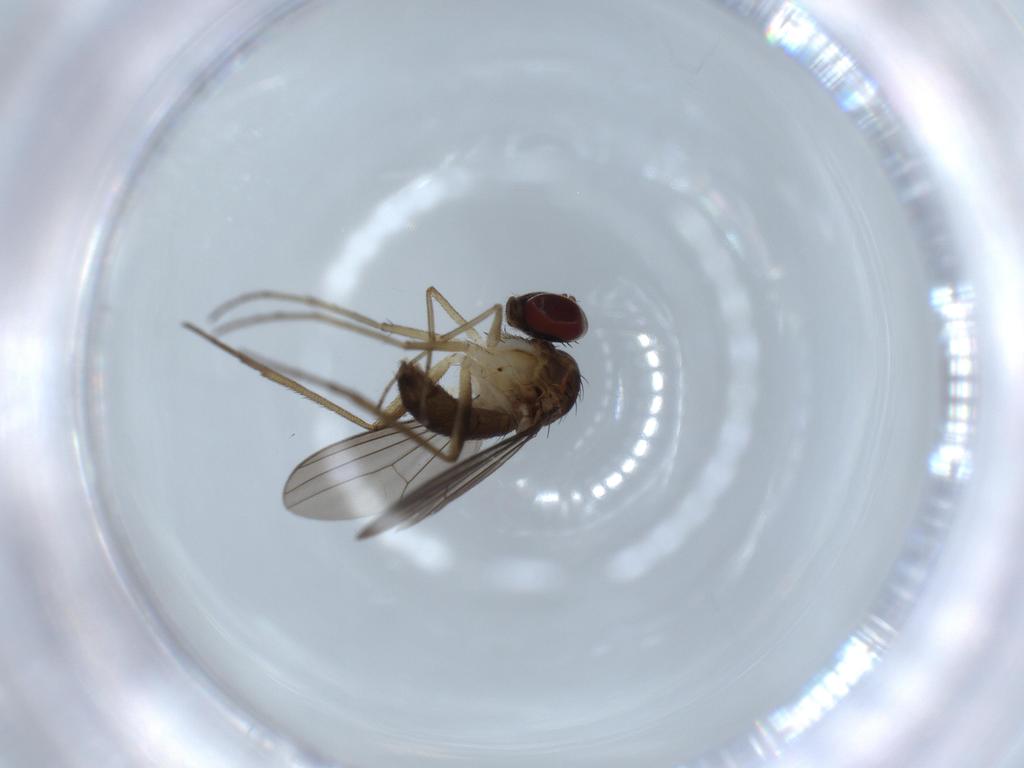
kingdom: Animalia
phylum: Arthropoda
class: Insecta
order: Diptera
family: Dolichopodidae
